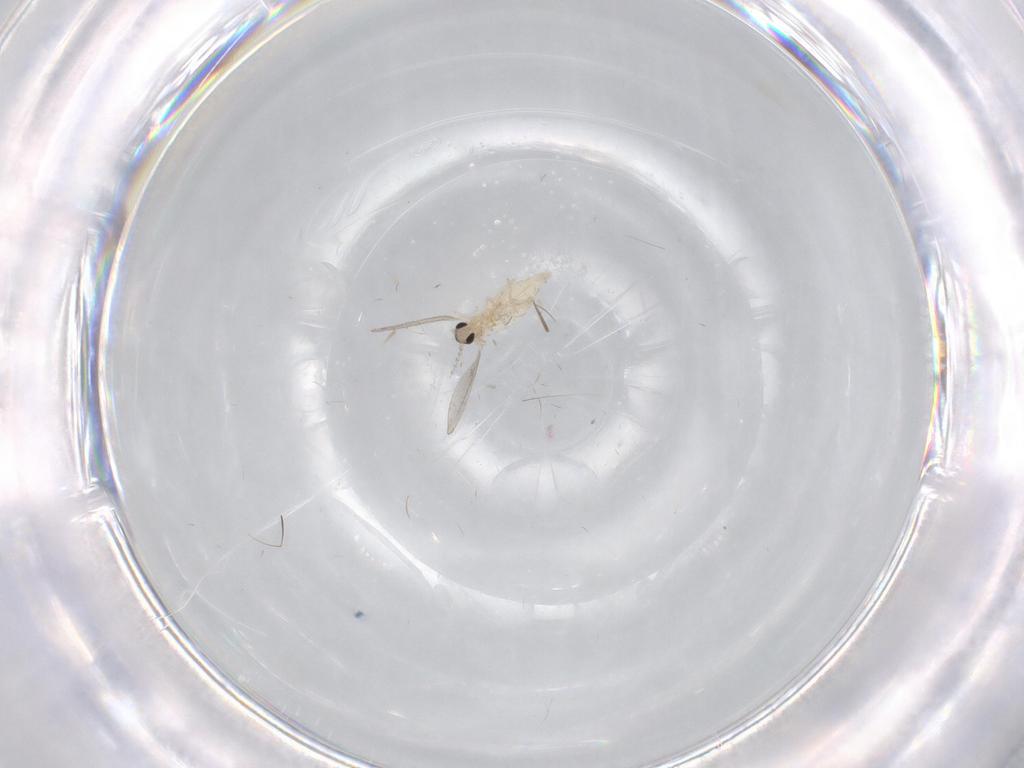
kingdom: Animalia
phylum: Arthropoda
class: Insecta
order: Diptera
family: Cecidomyiidae
